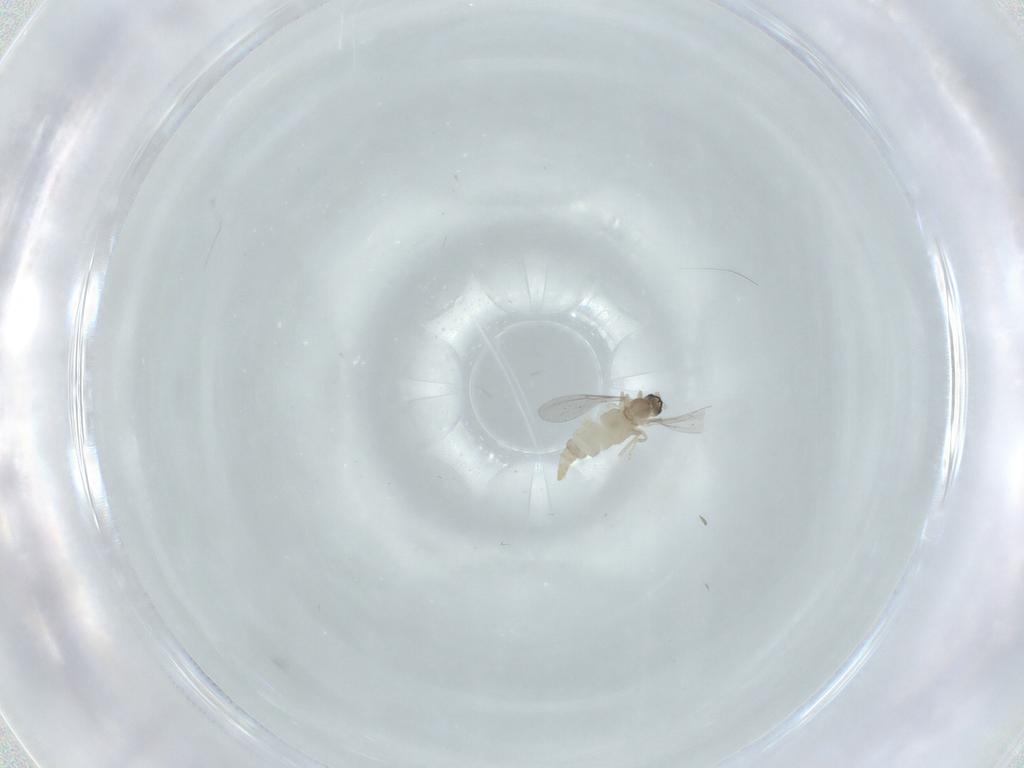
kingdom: Animalia
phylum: Arthropoda
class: Insecta
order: Diptera
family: Cecidomyiidae
